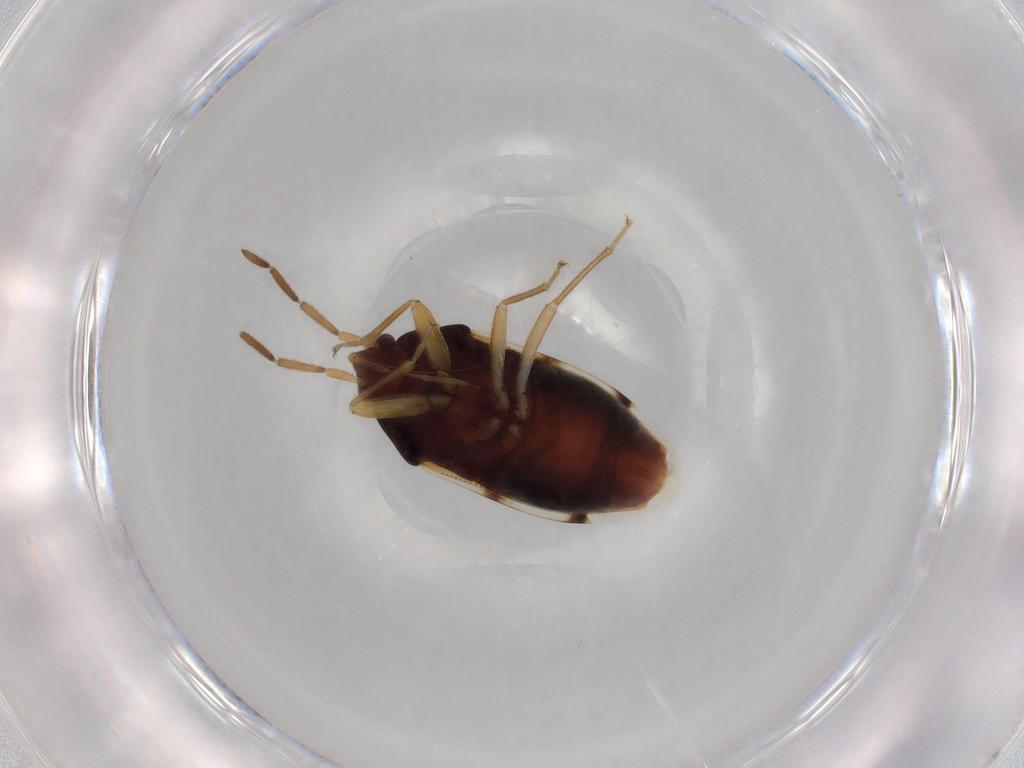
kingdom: Animalia
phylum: Arthropoda
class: Insecta
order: Hemiptera
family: Rhyparochromidae
